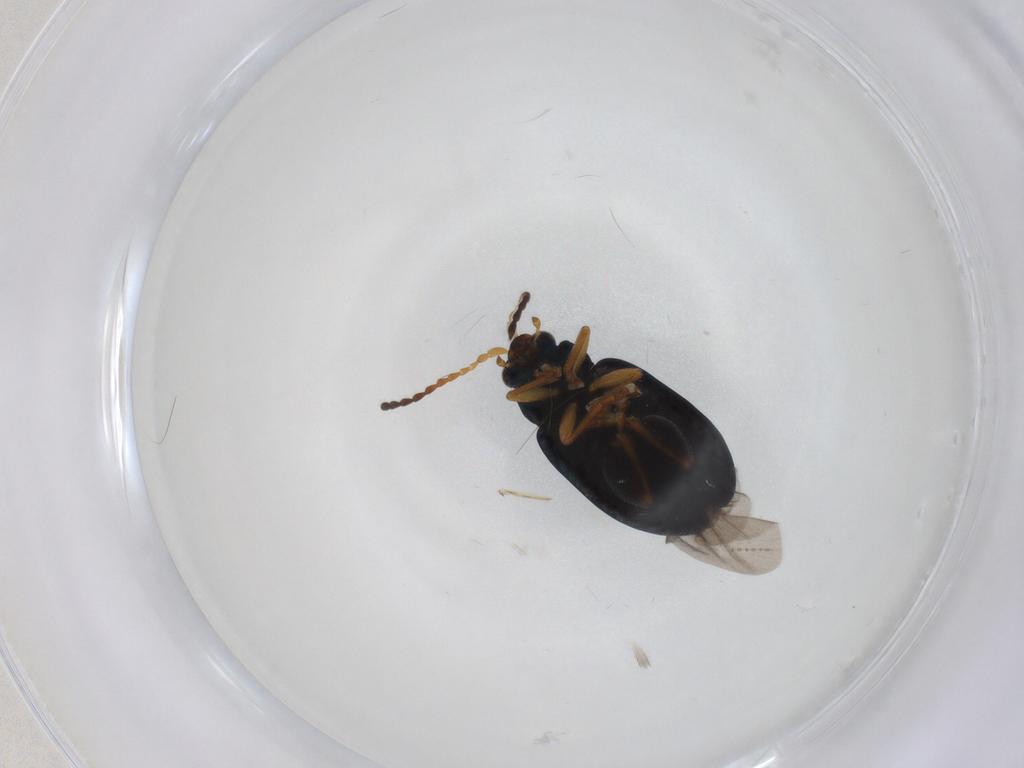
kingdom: Animalia
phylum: Arthropoda
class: Insecta
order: Coleoptera
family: Chrysomelidae
